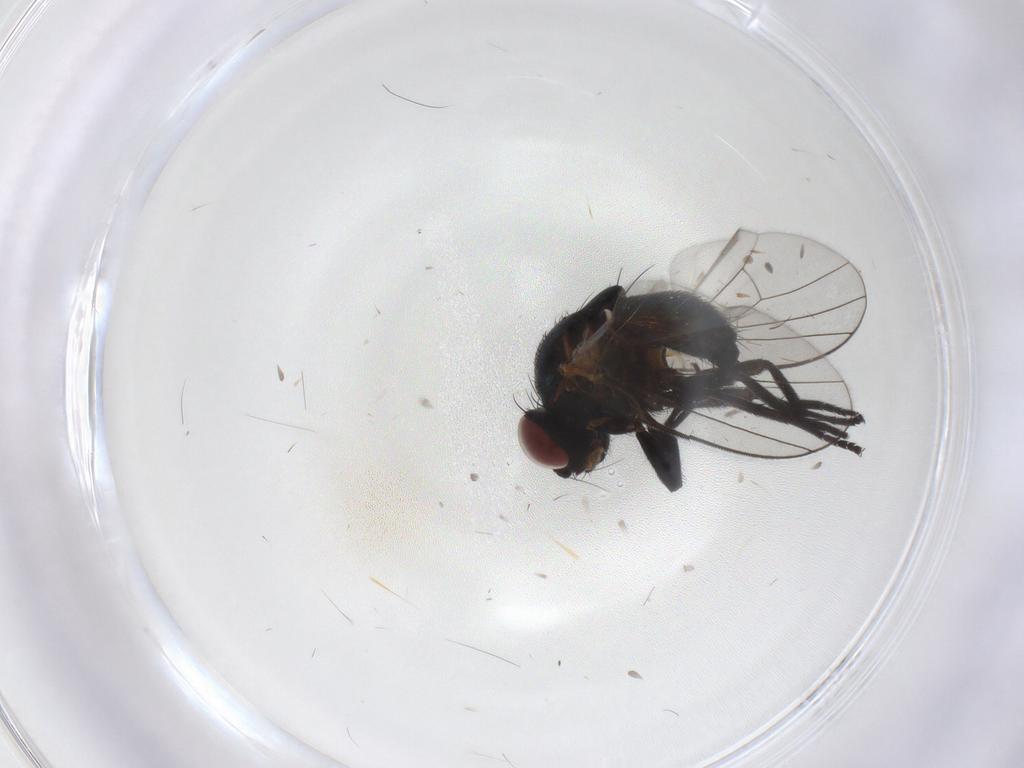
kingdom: Animalia
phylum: Arthropoda
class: Insecta
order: Diptera
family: Agromyzidae
